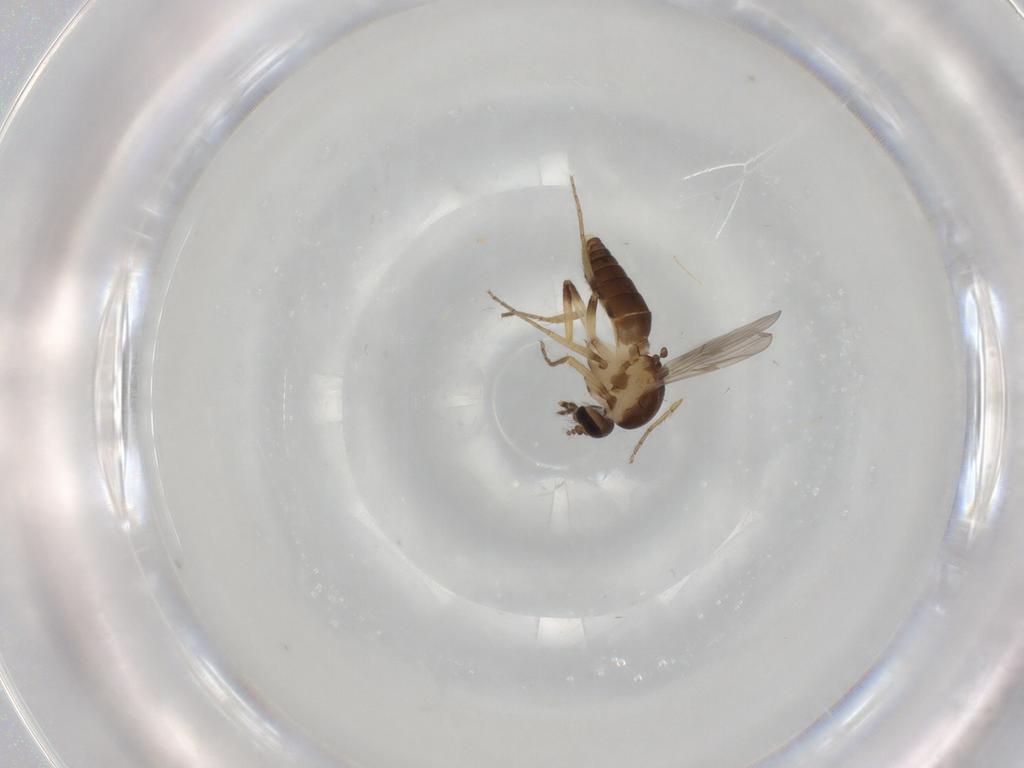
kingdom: Animalia
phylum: Arthropoda
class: Insecta
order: Diptera
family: Ceratopogonidae
